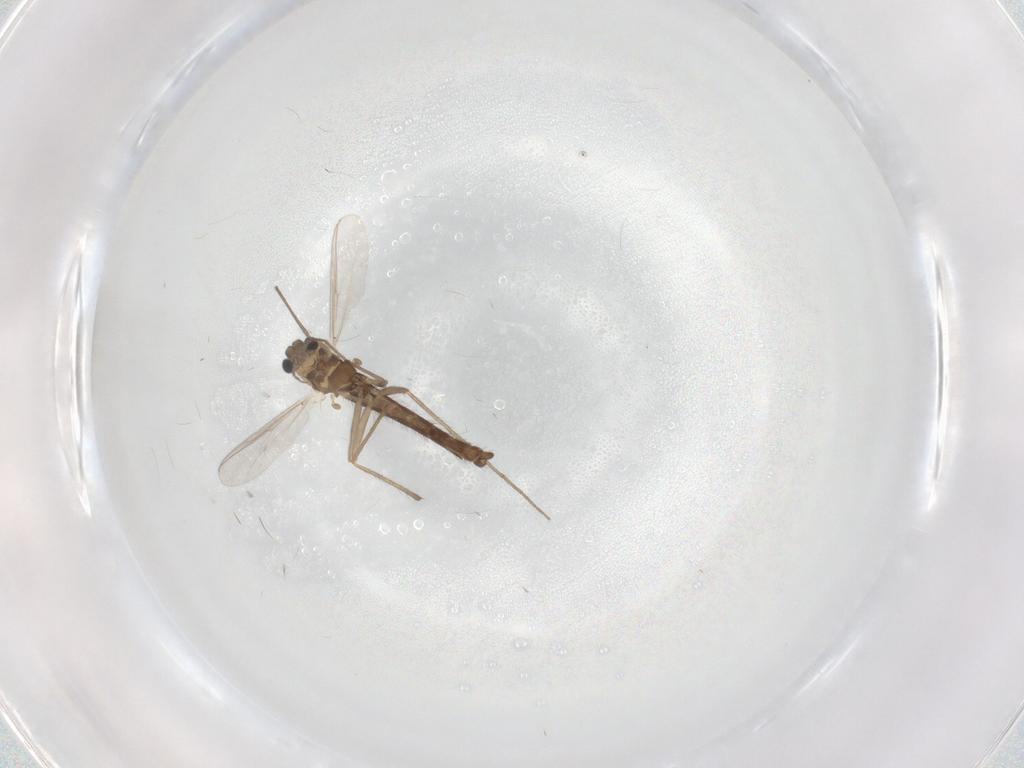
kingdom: Animalia
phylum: Arthropoda
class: Insecta
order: Diptera
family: Chironomidae
